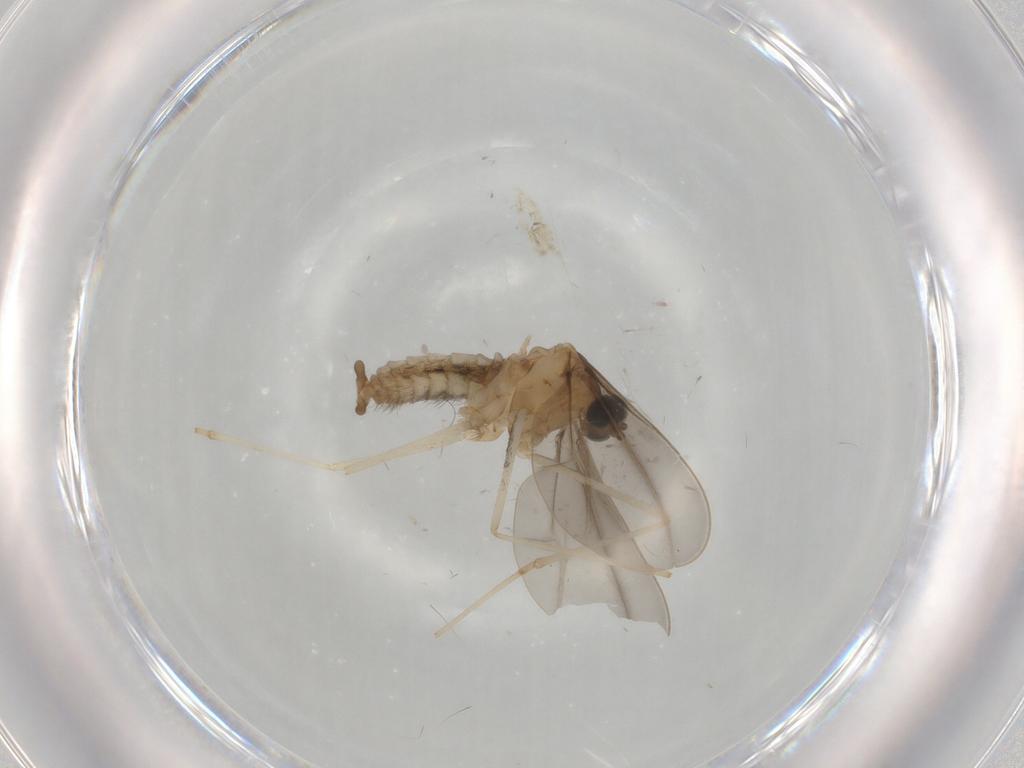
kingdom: Animalia
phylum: Arthropoda
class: Insecta
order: Diptera
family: Cecidomyiidae
